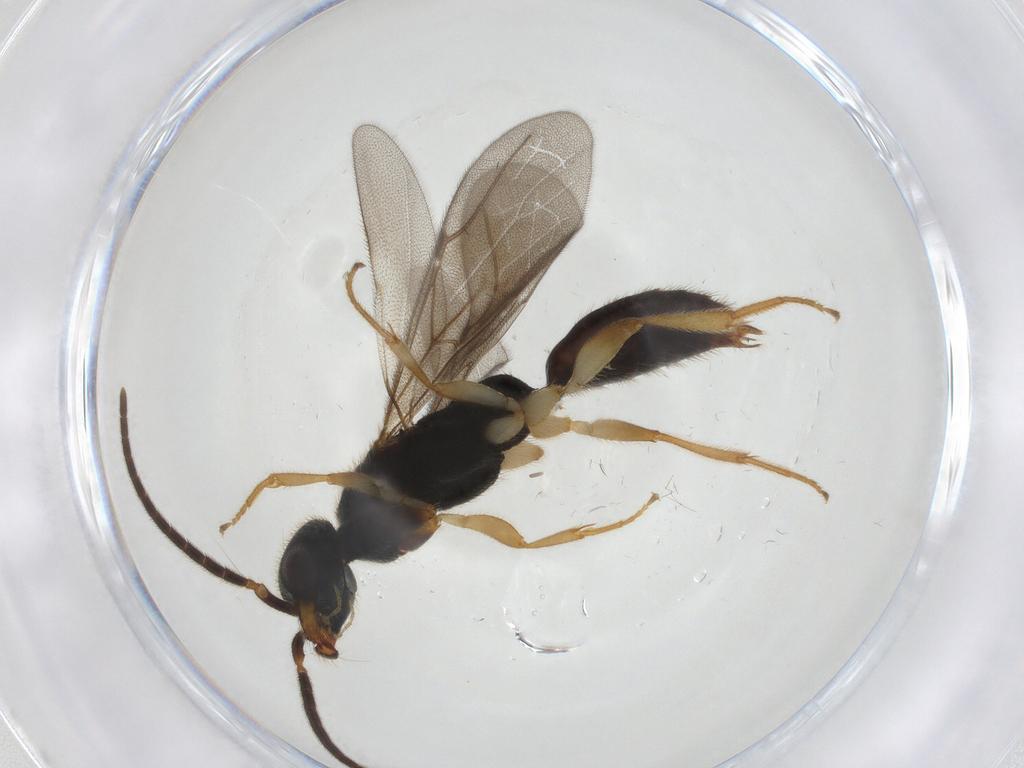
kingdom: Animalia
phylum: Arthropoda
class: Insecta
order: Hymenoptera
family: Bethylidae
